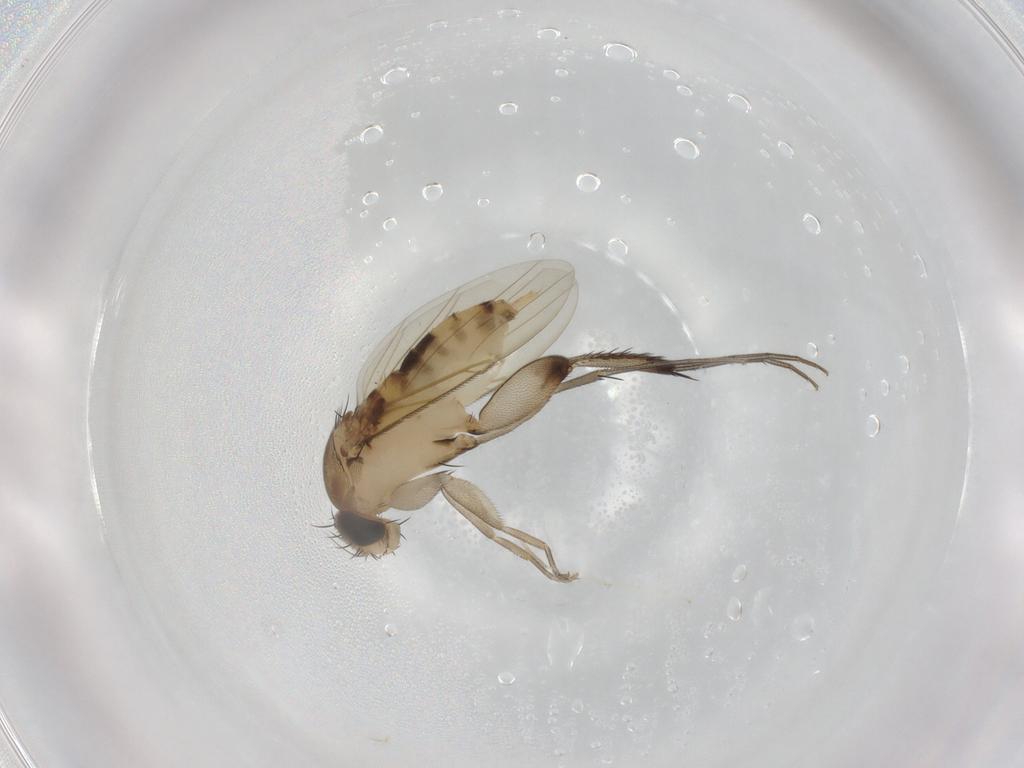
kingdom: Animalia
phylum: Arthropoda
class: Insecta
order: Diptera
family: Phoridae
